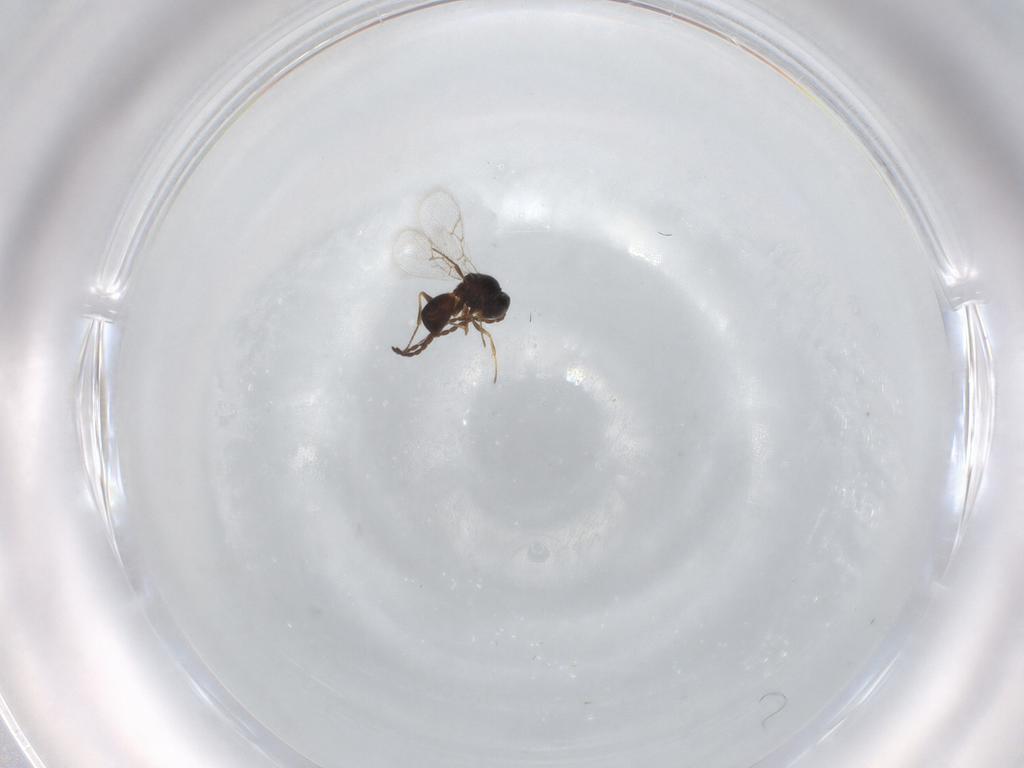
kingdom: Animalia
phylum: Arthropoda
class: Insecta
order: Hymenoptera
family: Figitidae
